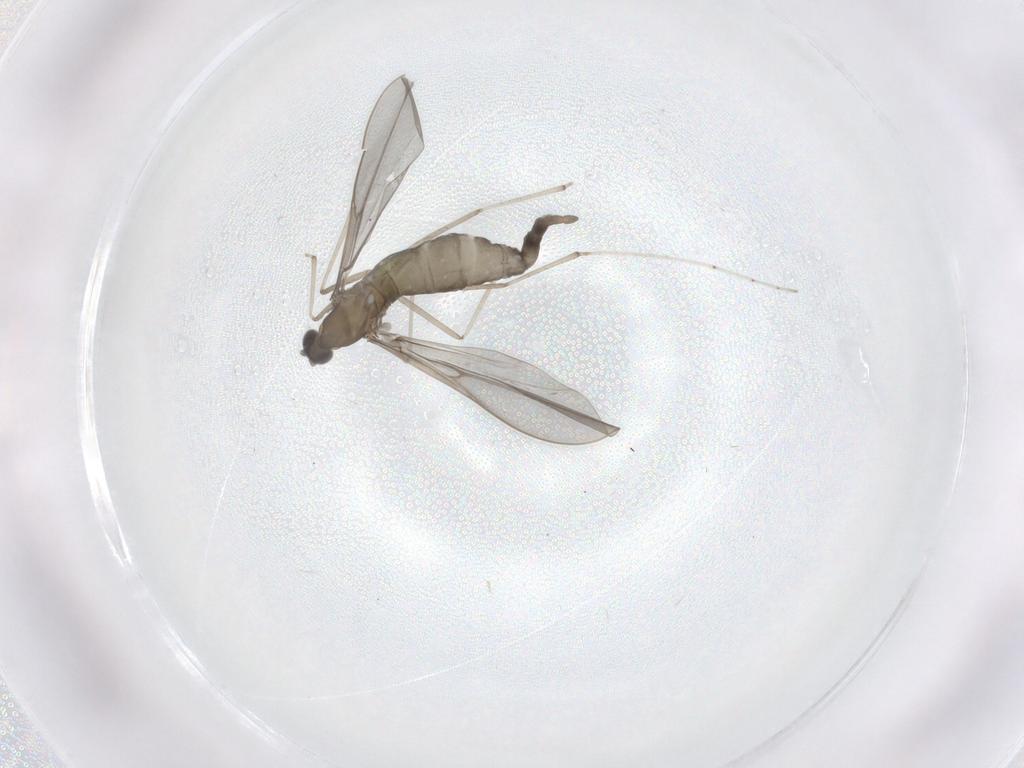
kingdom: Animalia
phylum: Arthropoda
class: Insecta
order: Diptera
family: Cecidomyiidae
